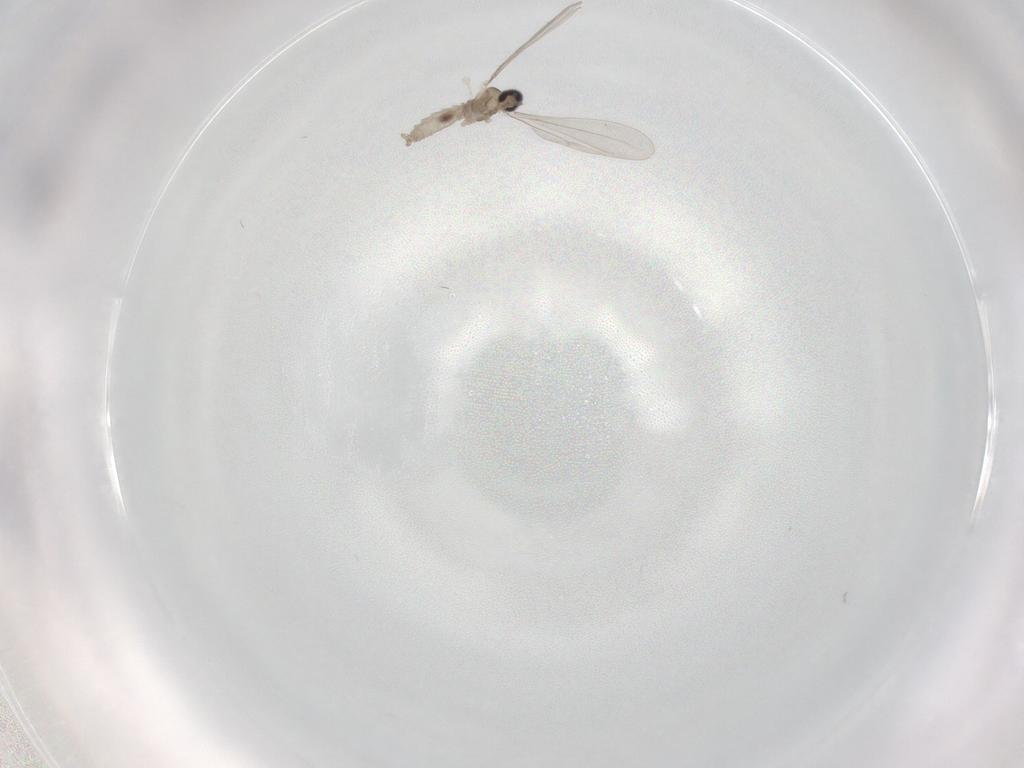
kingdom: Animalia
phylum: Arthropoda
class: Insecta
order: Diptera
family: Cecidomyiidae
